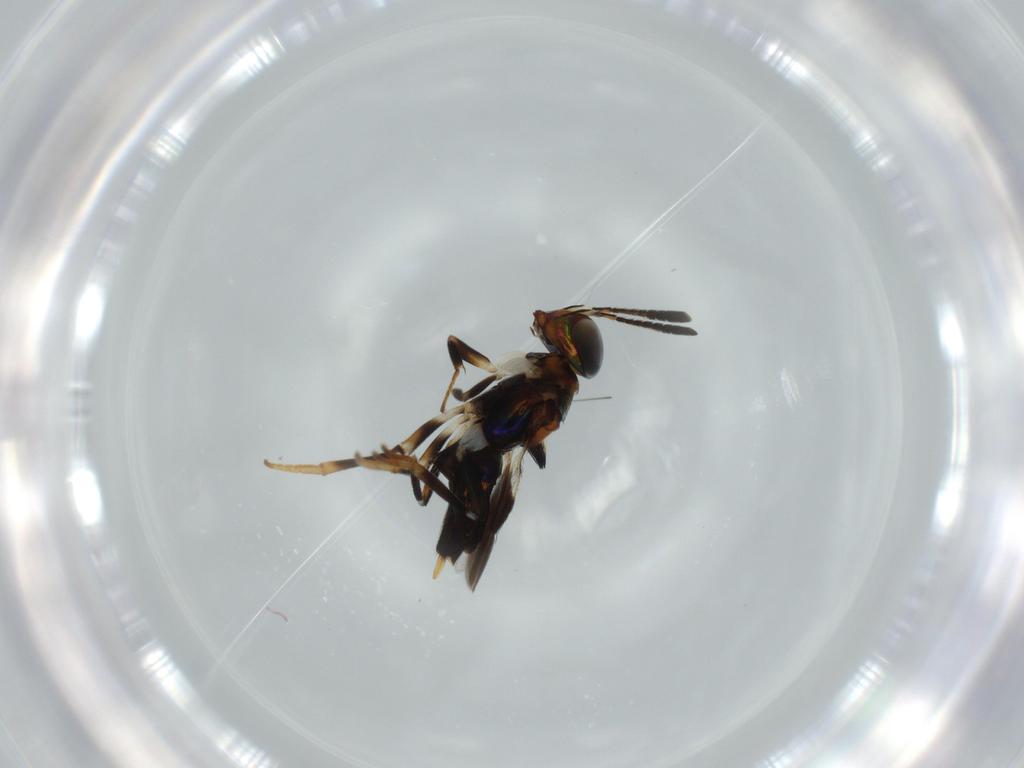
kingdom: Animalia
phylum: Arthropoda
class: Insecta
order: Hymenoptera
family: Encyrtidae
